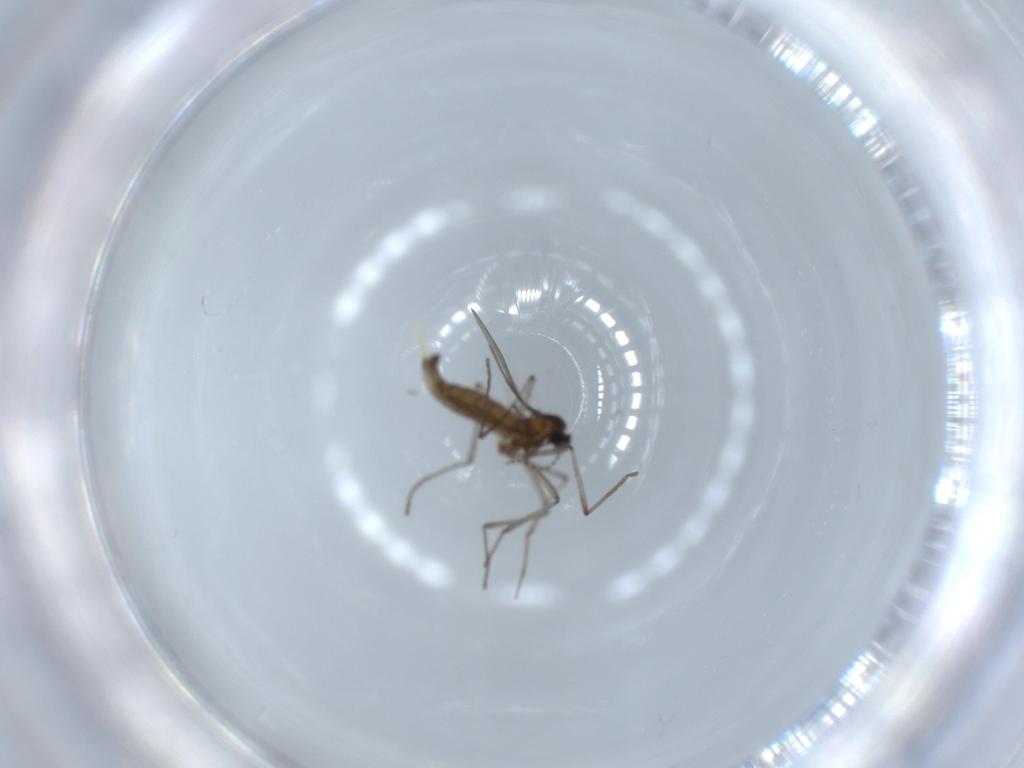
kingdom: Animalia
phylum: Arthropoda
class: Insecta
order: Diptera
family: Cecidomyiidae
